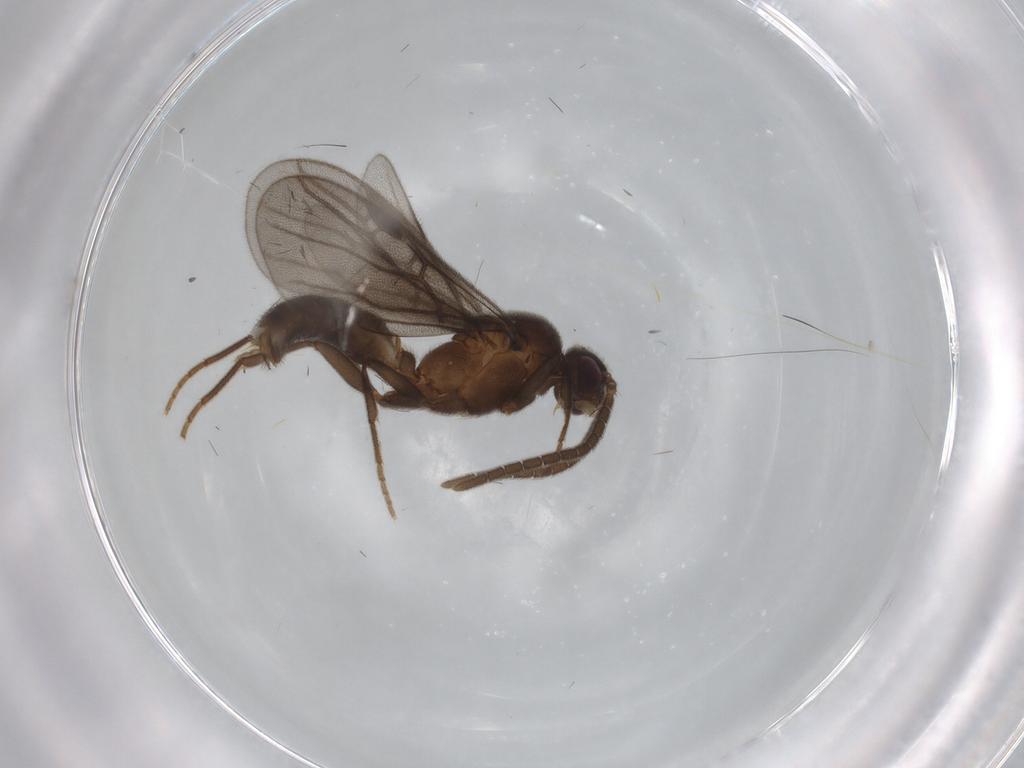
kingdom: Animalia
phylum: Arthropoda
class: Insecta
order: Hymenoptera
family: Formicidae
